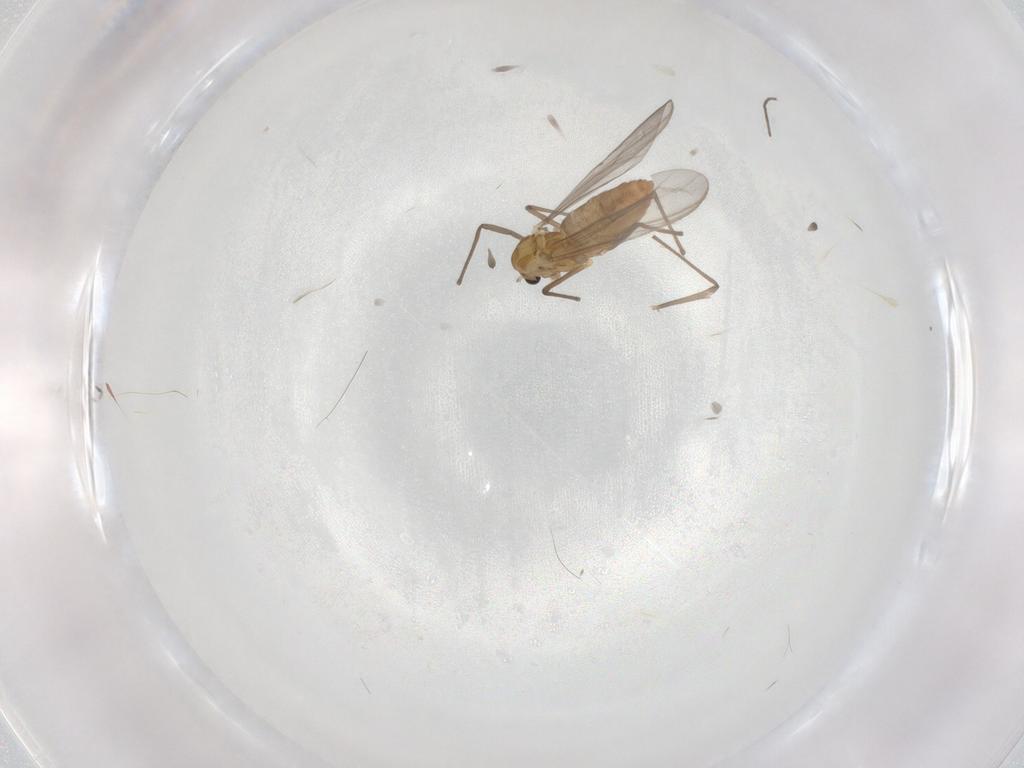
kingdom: Animalia
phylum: Arthropoda
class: Insecta
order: Diptera
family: Chironomidae
